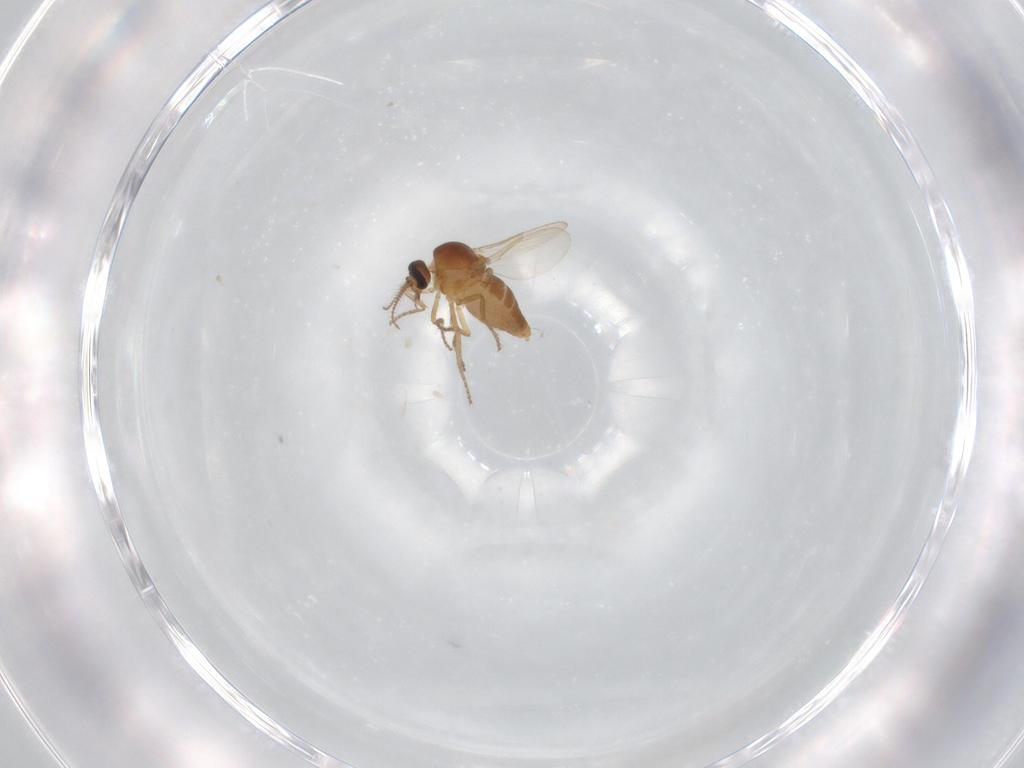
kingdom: Animalia
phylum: Arthropoda
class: Insecta
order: Diptera
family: Ceratopogonidae
